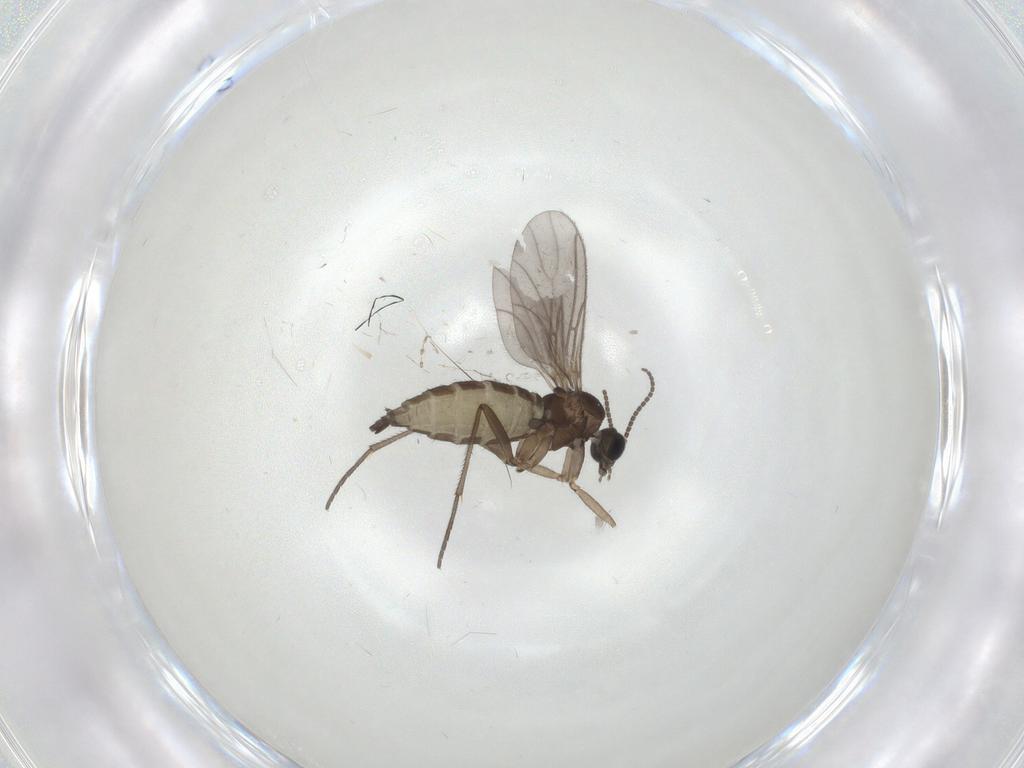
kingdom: Animalia
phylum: Arthropoda
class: Insecta
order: Diptera
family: Sciaridae
